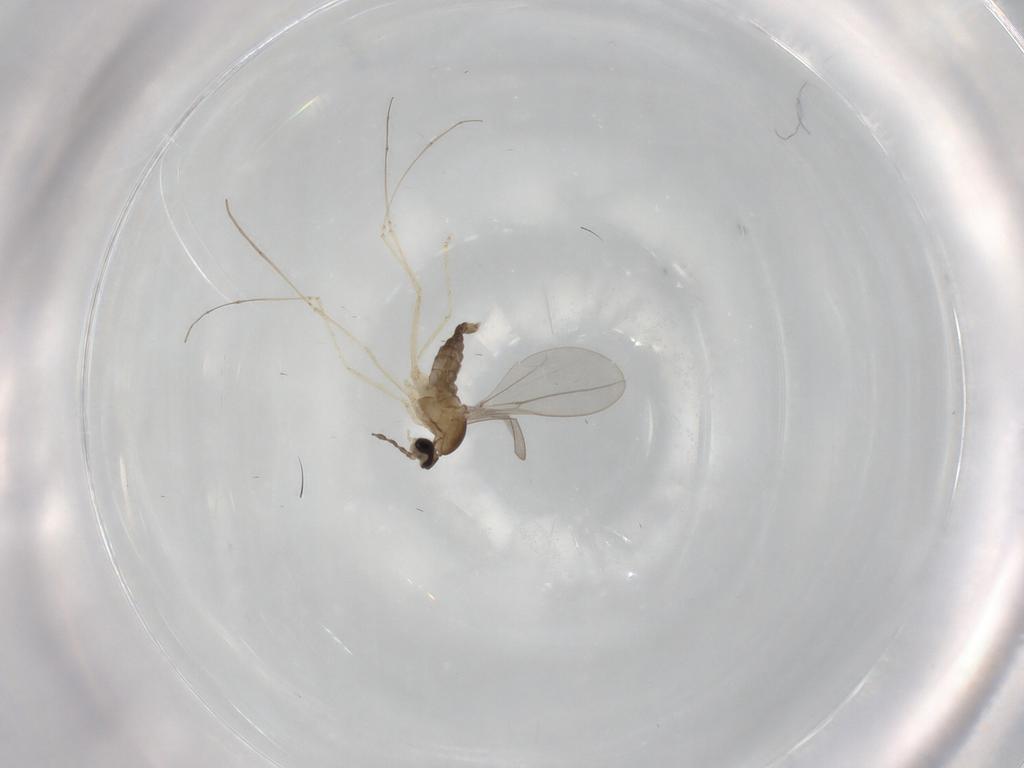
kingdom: Animalia
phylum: Arthropoda
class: Insecta
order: Diptera
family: Cecidomyiidae
